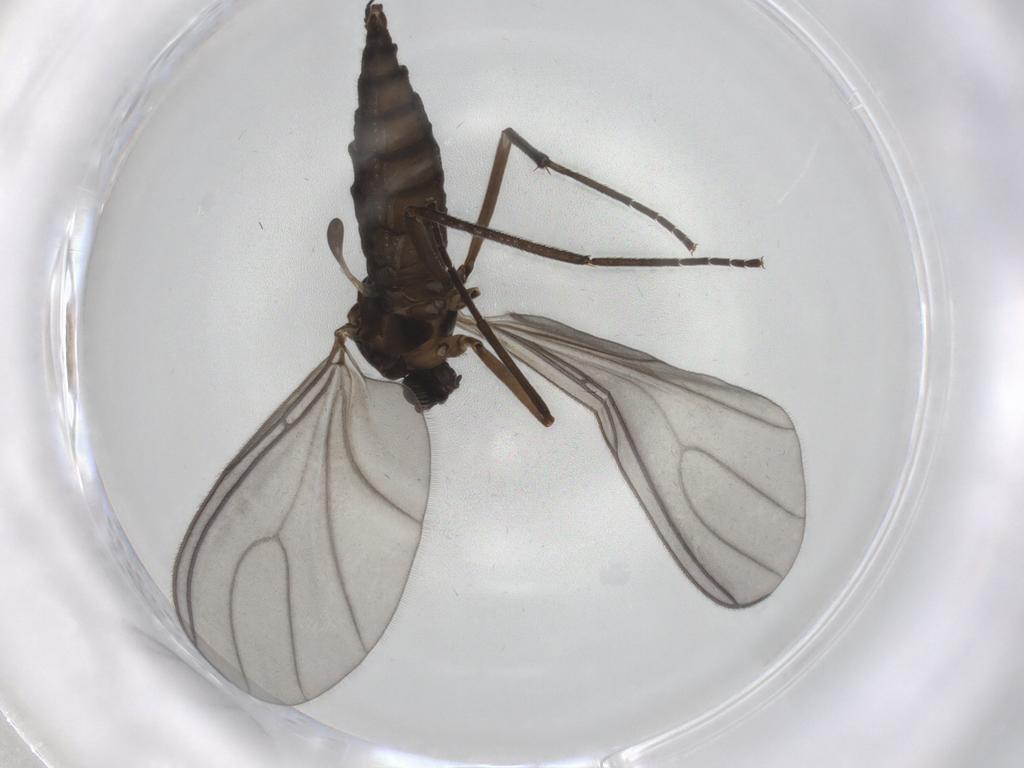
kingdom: Animalia
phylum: Arthropoda
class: Insecta
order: Diptera
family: Sciaridae
